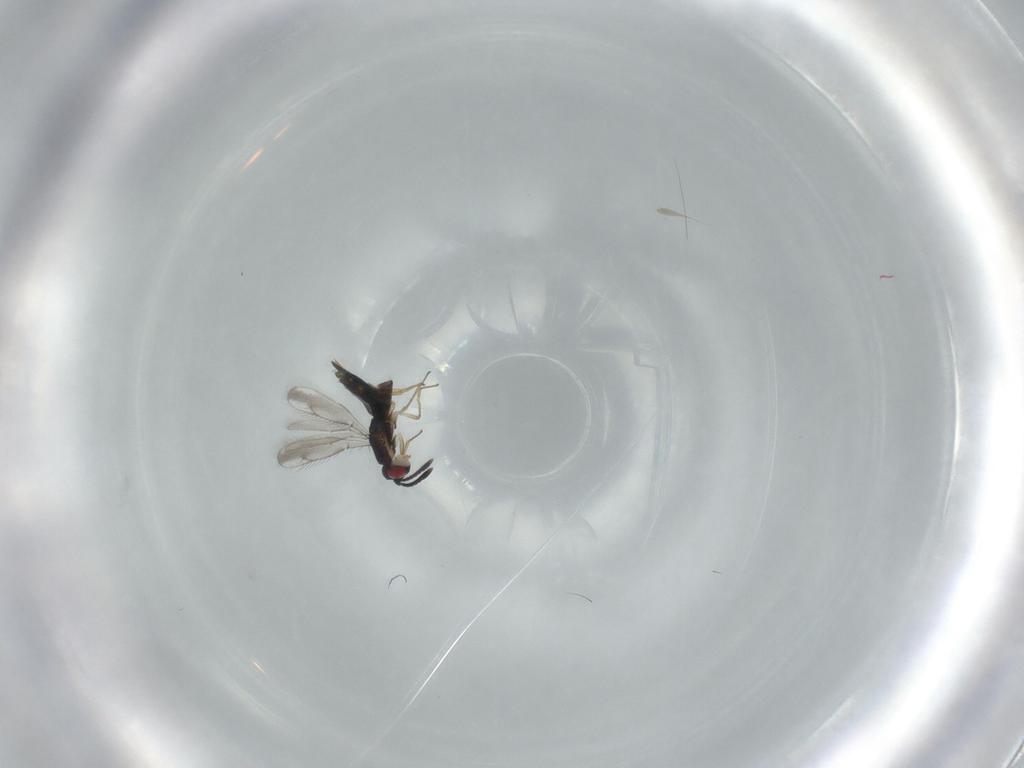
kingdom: Animalia
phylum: Arthropoda
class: Insecta
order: Hymenoptera
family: Pteromalidae
